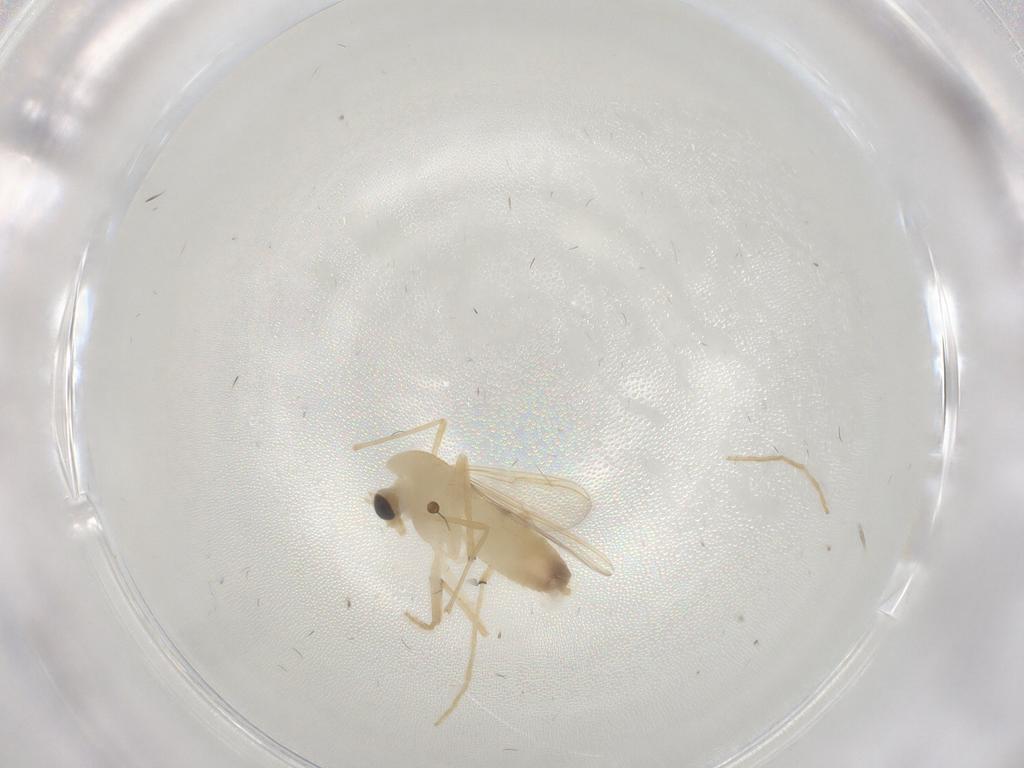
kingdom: Animalia
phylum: Arthropoda
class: Insecta
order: Diptera
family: Chironomidae
